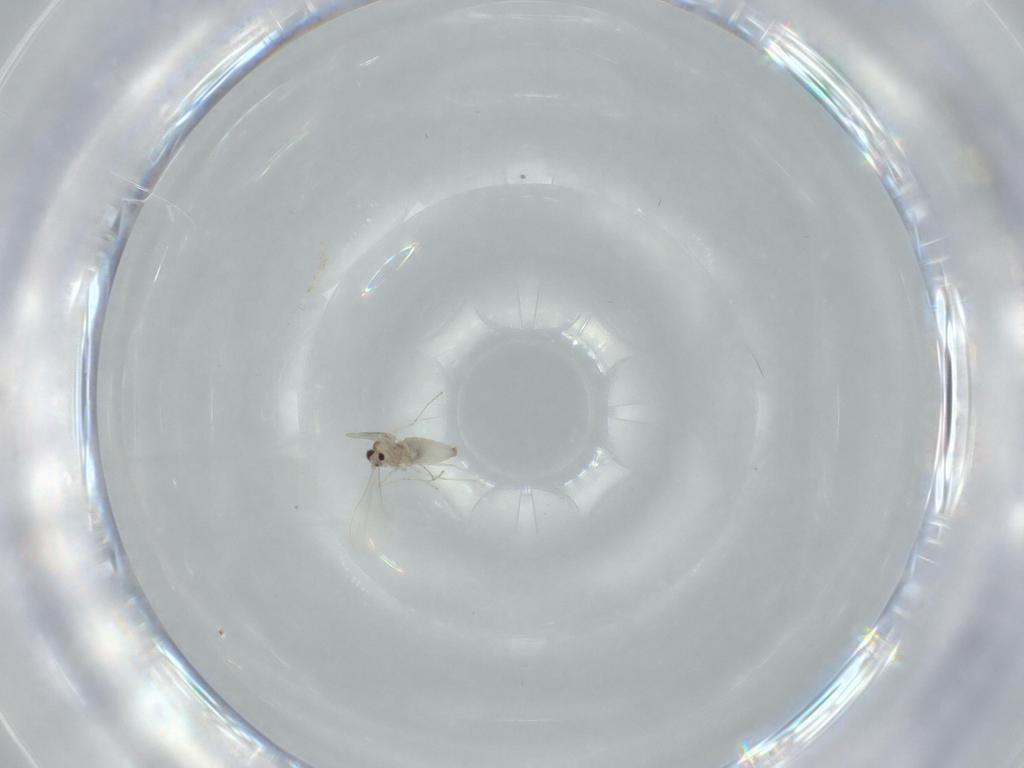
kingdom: Animalia
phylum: Arthropoda
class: Insecta
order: Diptera
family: Cecidomyiidae
